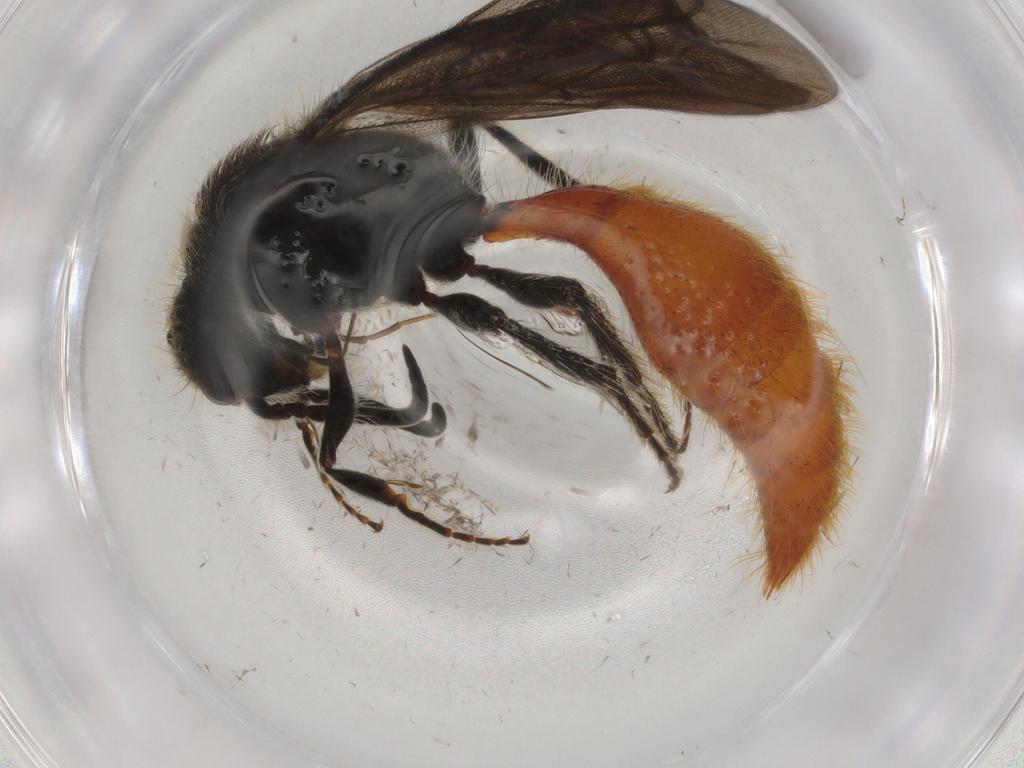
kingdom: Animalia
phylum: Arthropoda
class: Insecta
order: Hymenoptera
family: Mutillidae
